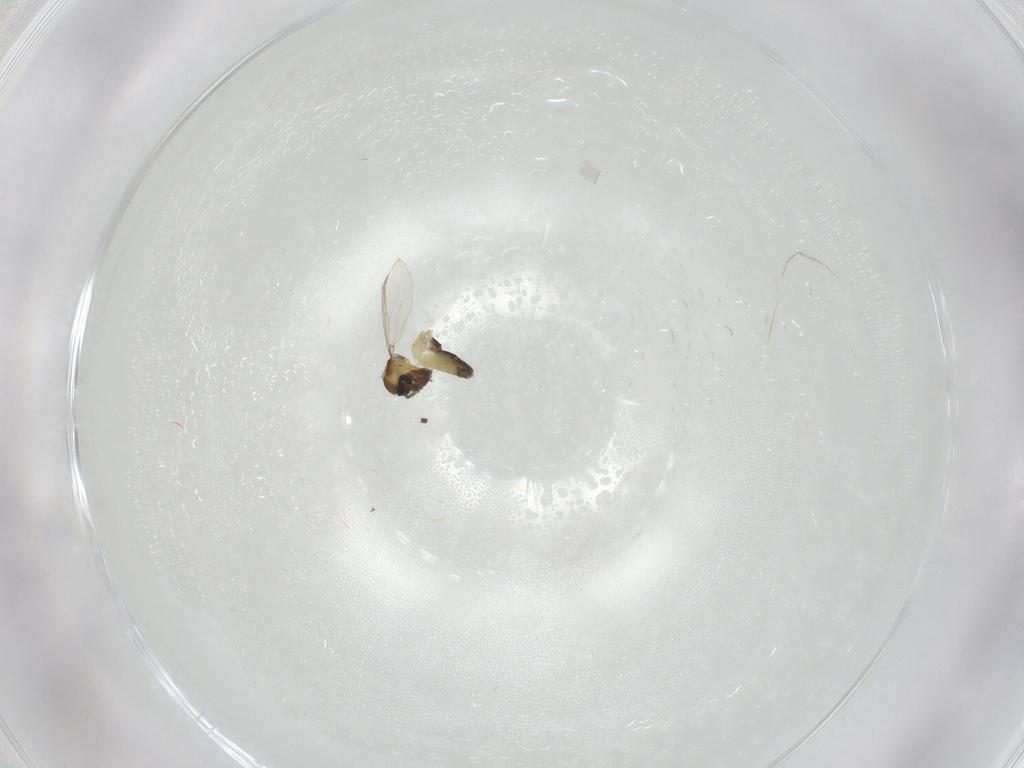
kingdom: Animalia
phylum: Arthropoda
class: Insecta
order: Diptera
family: Chironomidae
